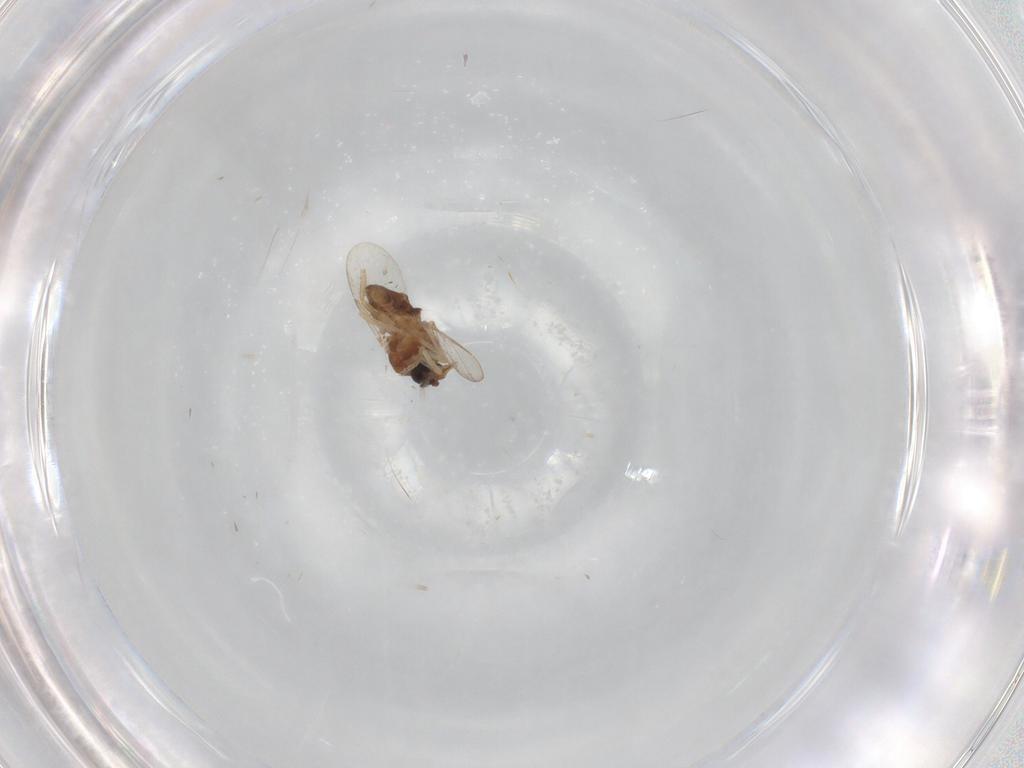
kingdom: Animalia
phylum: Arthropoda
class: Insecta
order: Diptera
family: Ceratopogonidae
